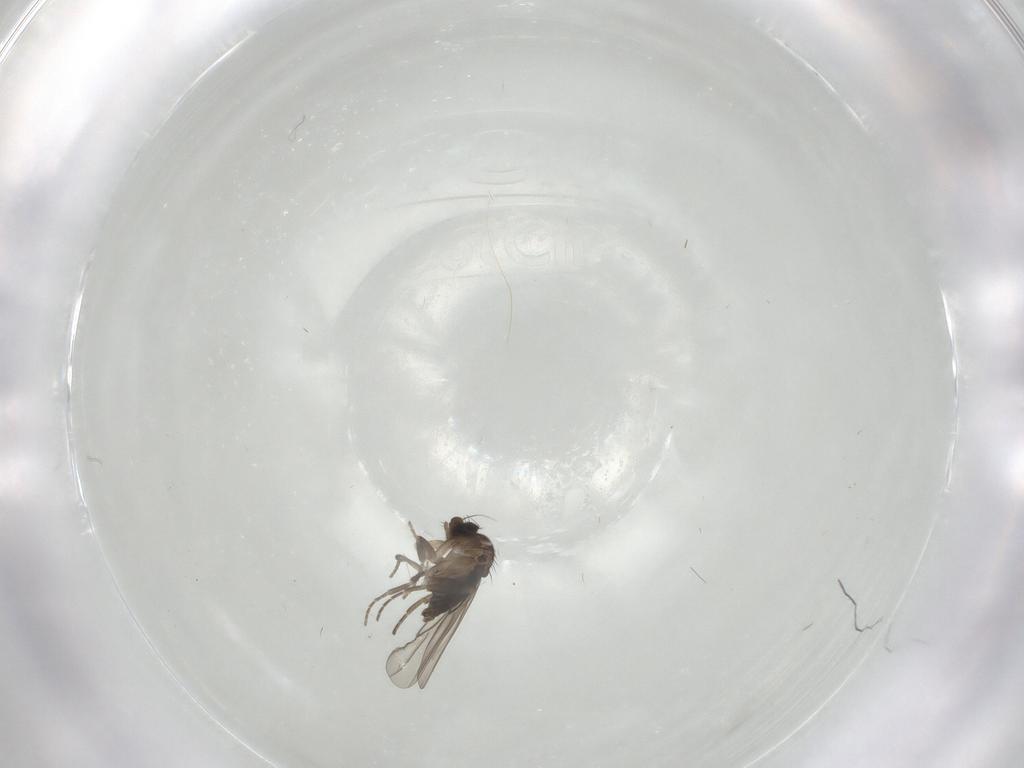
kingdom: Animalia
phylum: Arthropoda
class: Insecta
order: Diptera
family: Cecidomyiidae
